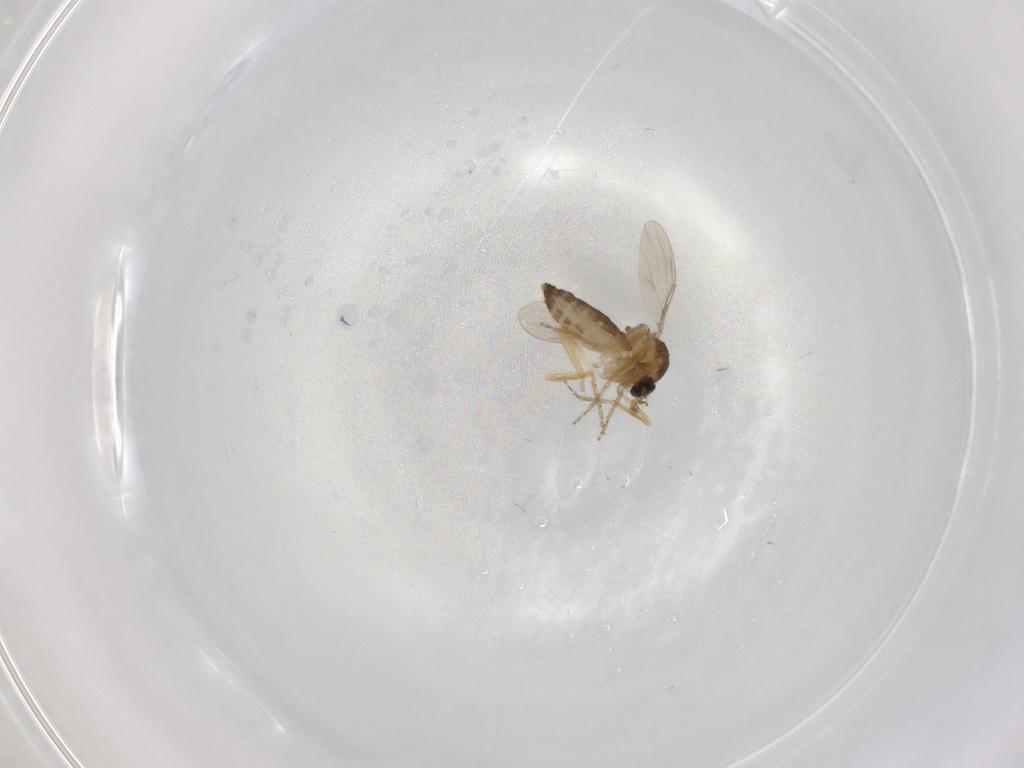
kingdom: Animalia
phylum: Arthropoda
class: Insecta
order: Diptera
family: Ceratopogonidae
